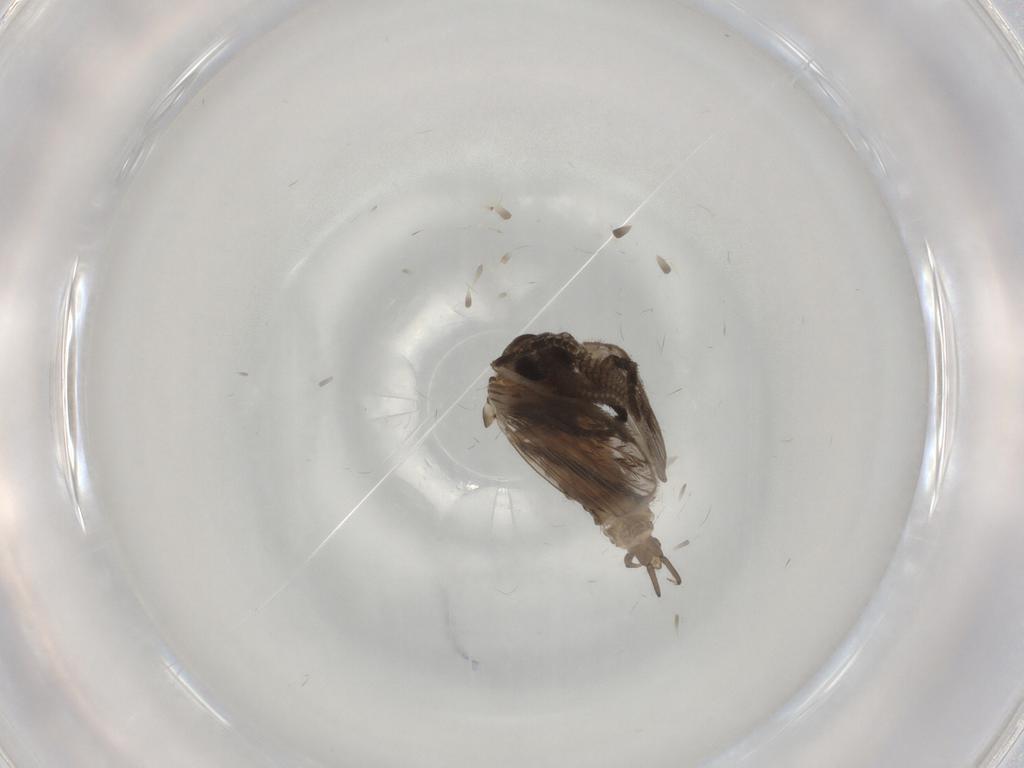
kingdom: Animalia
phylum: Arthropoda
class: Insecta
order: Diptera
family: Psychodidae
